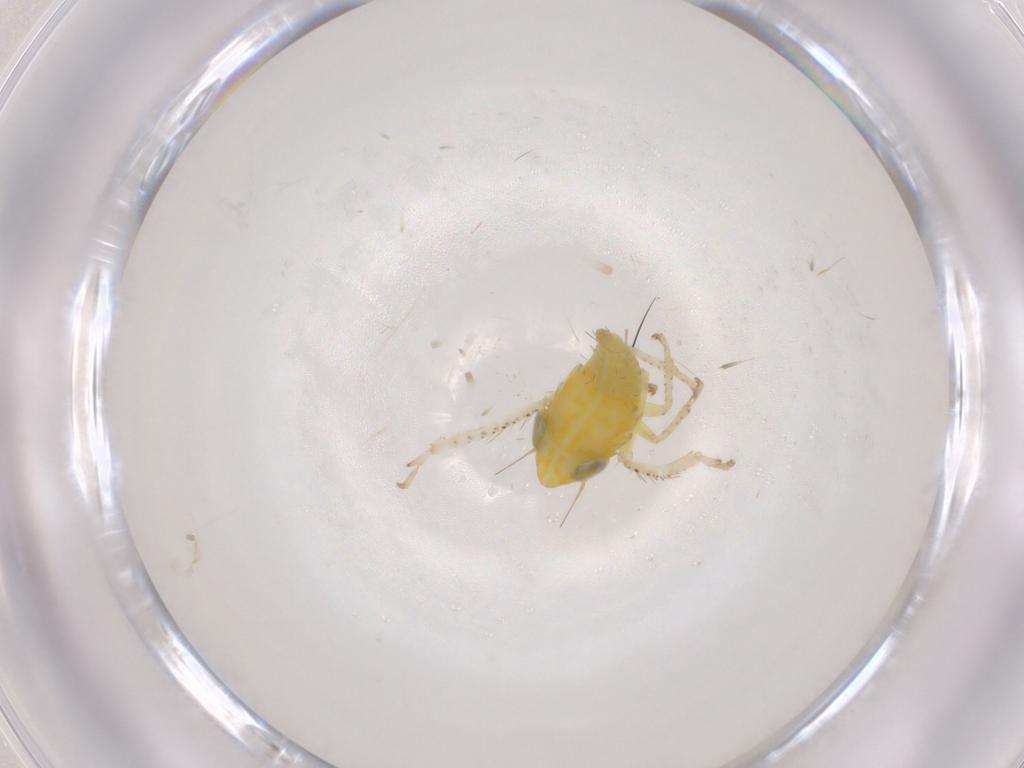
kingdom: Animalia
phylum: Arthropoda
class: Insecta
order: Hemiptera
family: Cicadellidae
